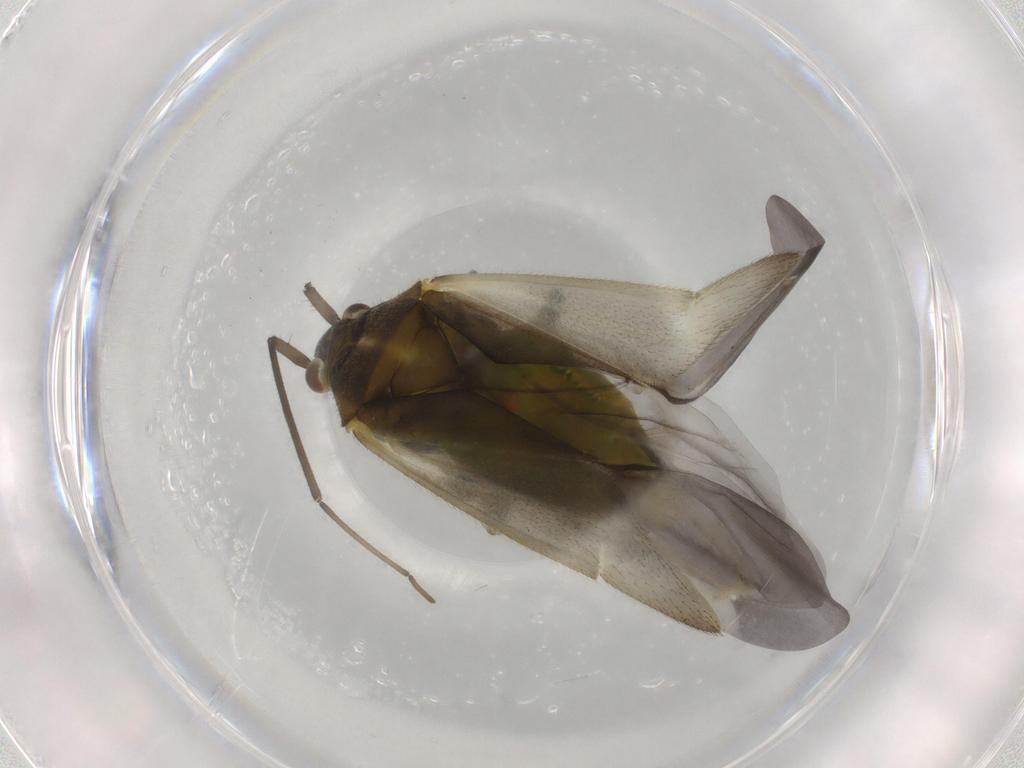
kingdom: Animalia
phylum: Arthropoda
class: Insecta
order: Hemiptera
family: Miridae
